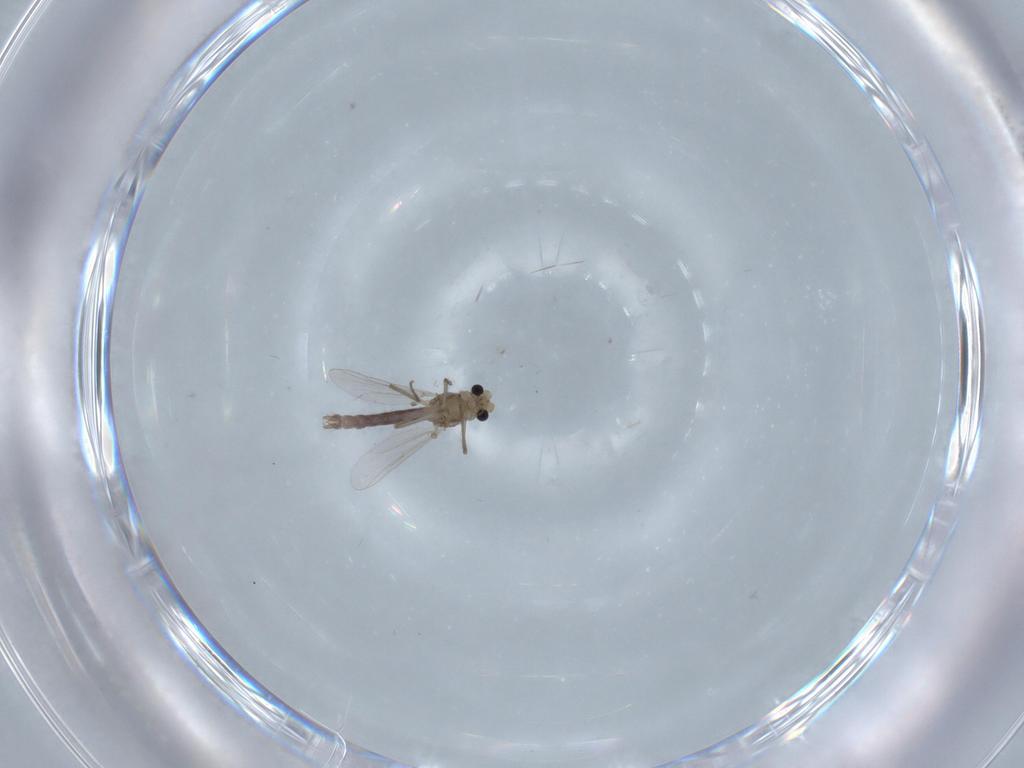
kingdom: Animalia
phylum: Arthropoda
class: Insecta
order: Diptera
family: Chironomidae
